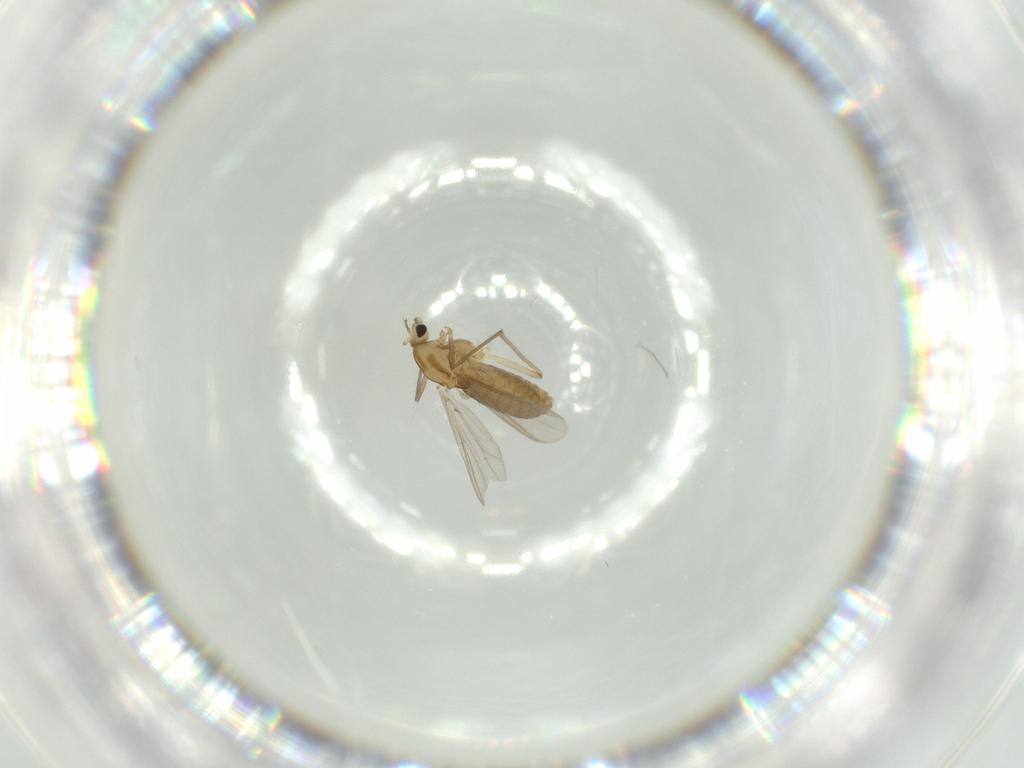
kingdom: Animalia
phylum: Arthropoda
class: Insecta
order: Diptera
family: Chironomidae
